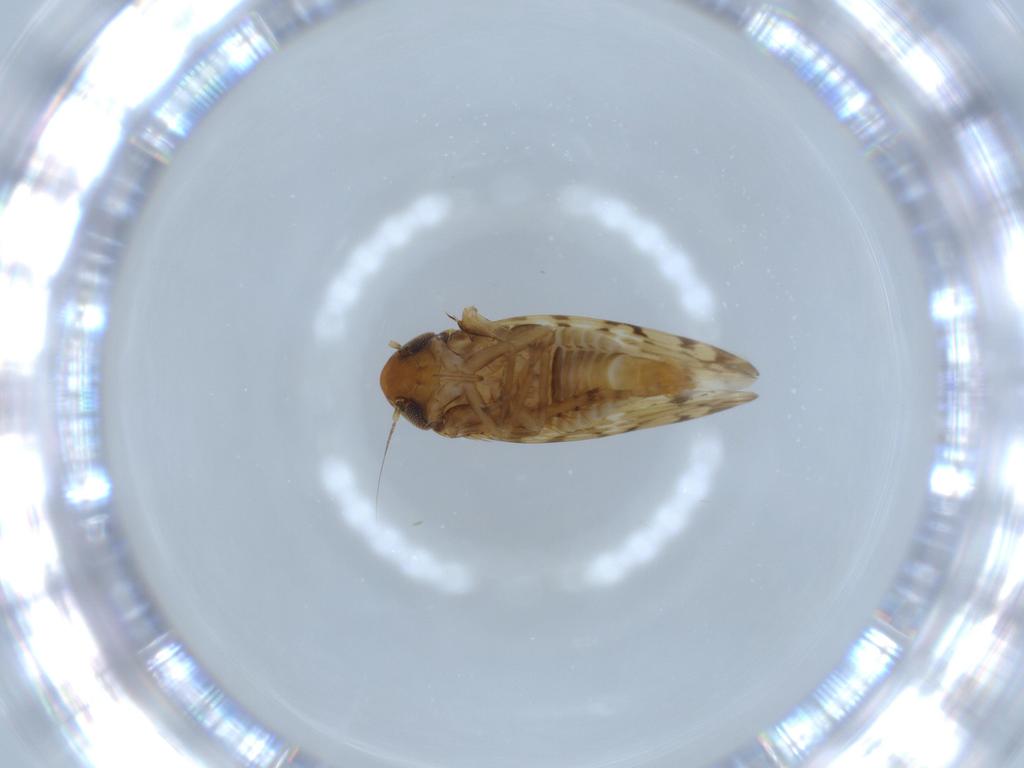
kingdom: Animalia
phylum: Arthropoda
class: Insecta
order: Hemiptera
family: Cicadellidae
